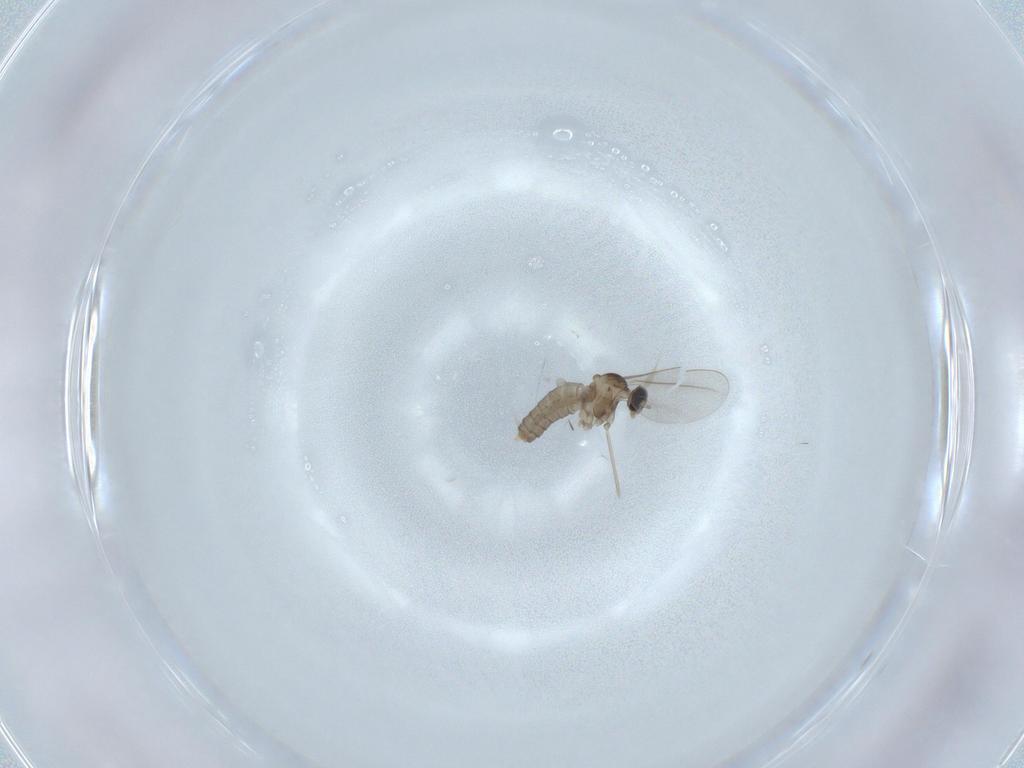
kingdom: Animalia
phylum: Arthropoda
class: Insecta
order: Diptera
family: Cecidomyiidae
